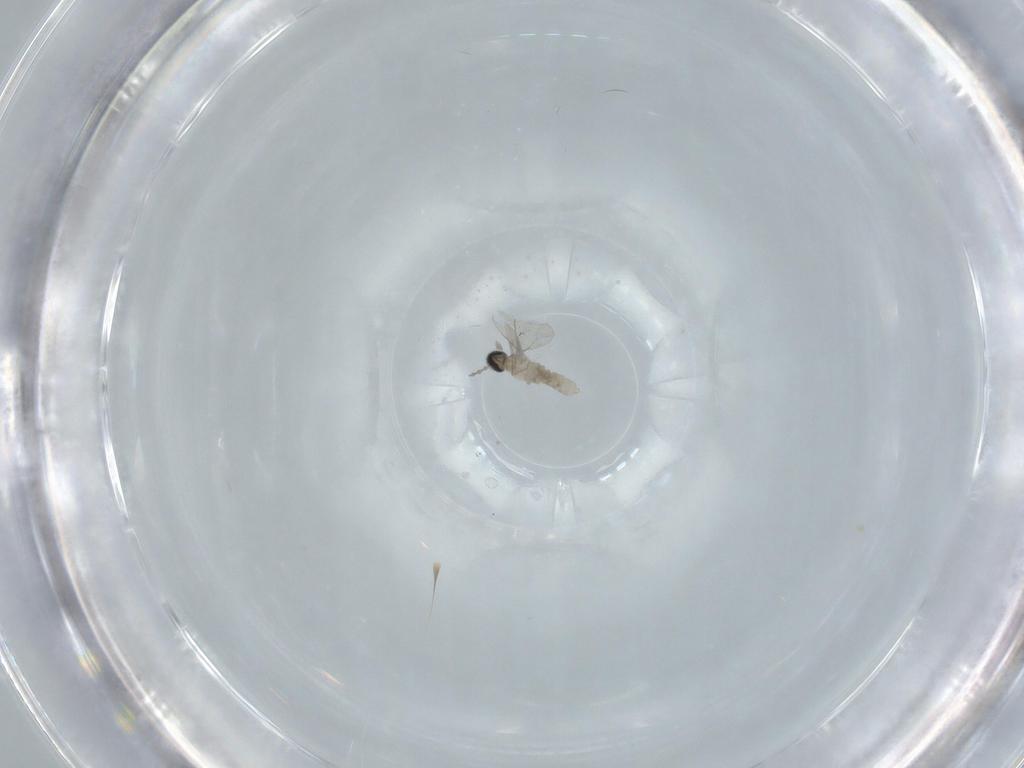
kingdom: Animalia
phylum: Arthropoda
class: Insecta
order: Diptera
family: Cecidomyiidae
